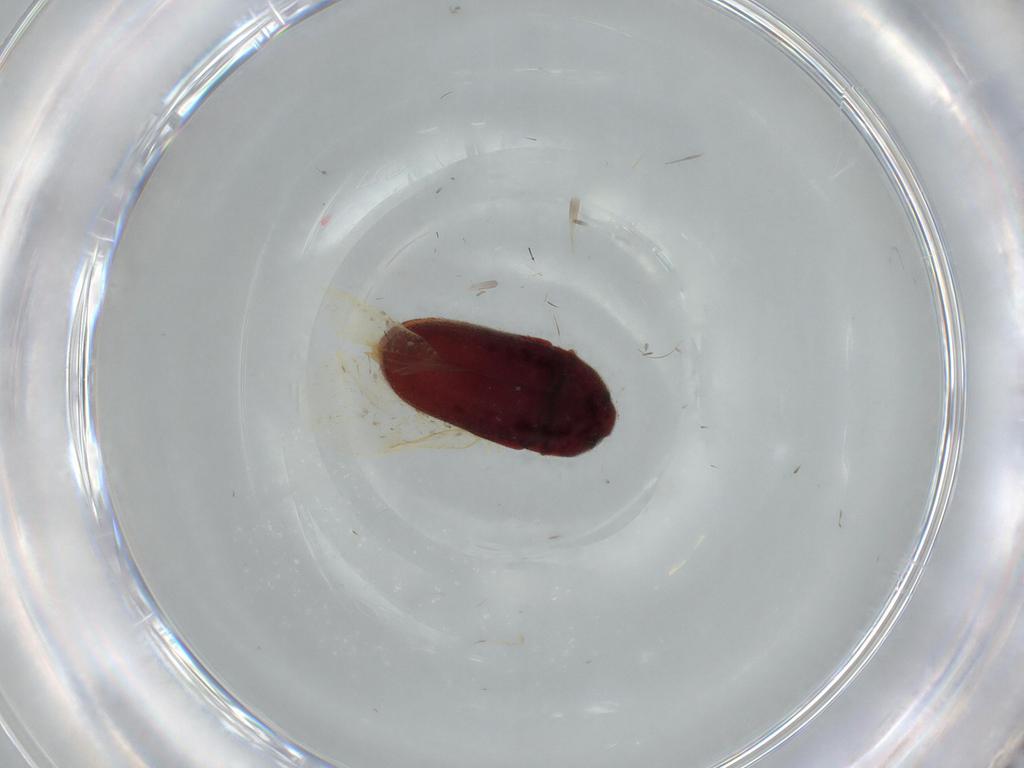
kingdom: Animalia
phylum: Arthropoda
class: Insecta
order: Coleoptera
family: Throscidae
